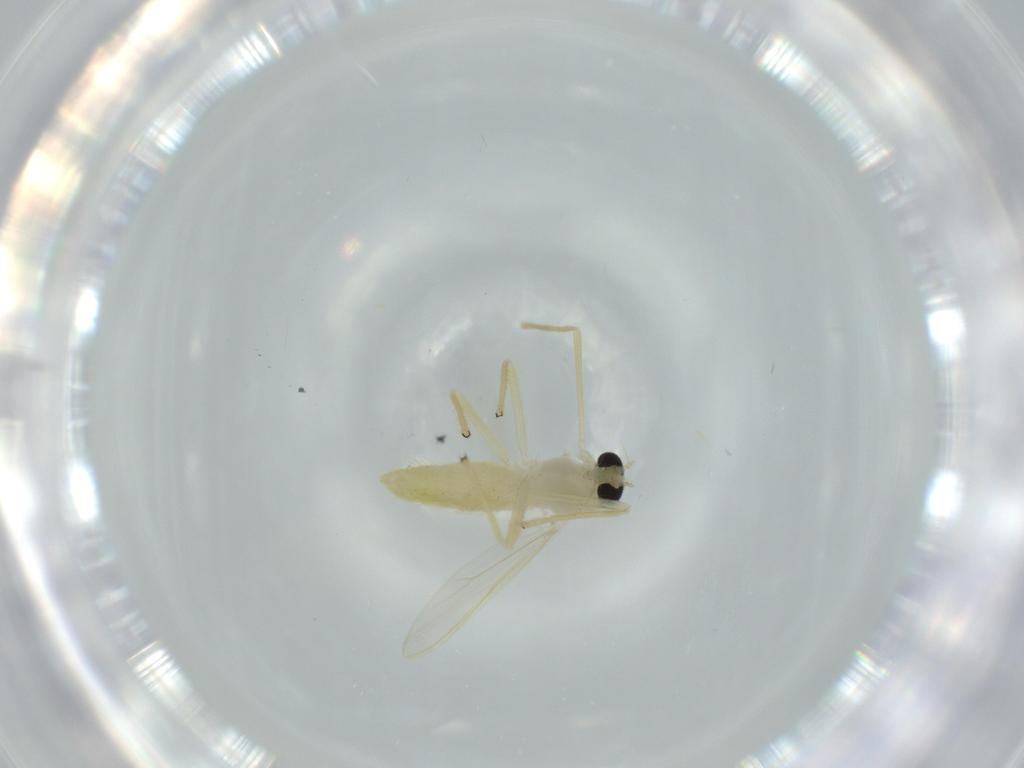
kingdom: Animalia
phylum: Arthropoda
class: Insecta
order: Diptera
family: Chironomidae
